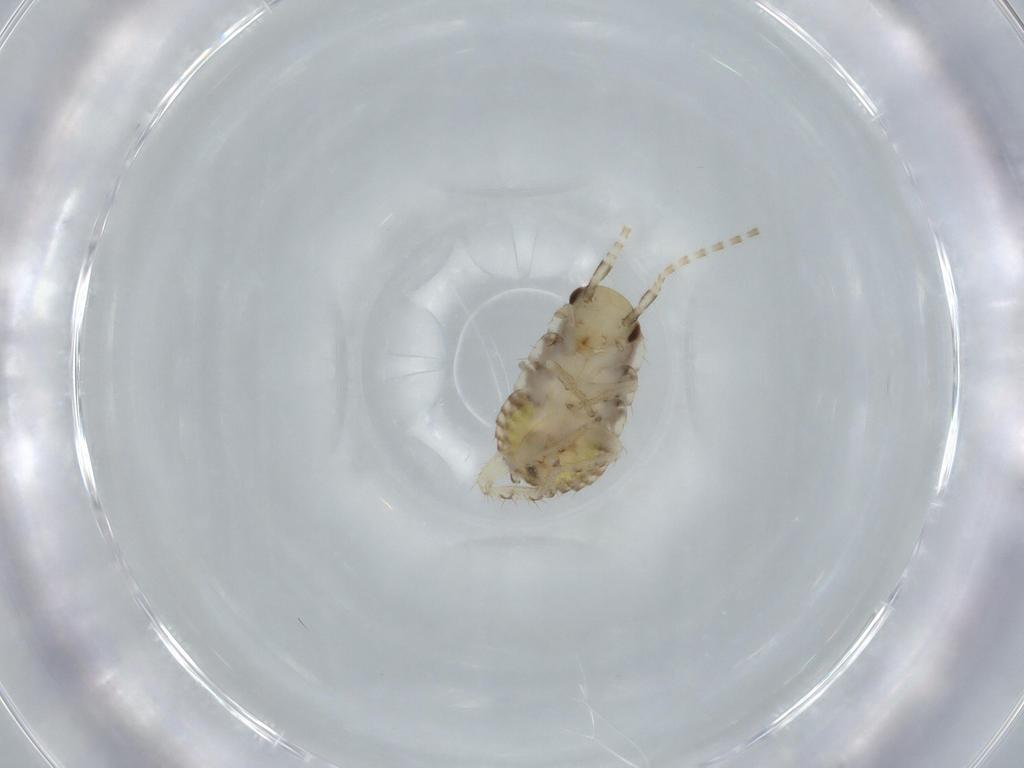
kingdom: Animalia
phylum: Arthropoda
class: Insecta
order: Blattodea
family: Ectobiidae
